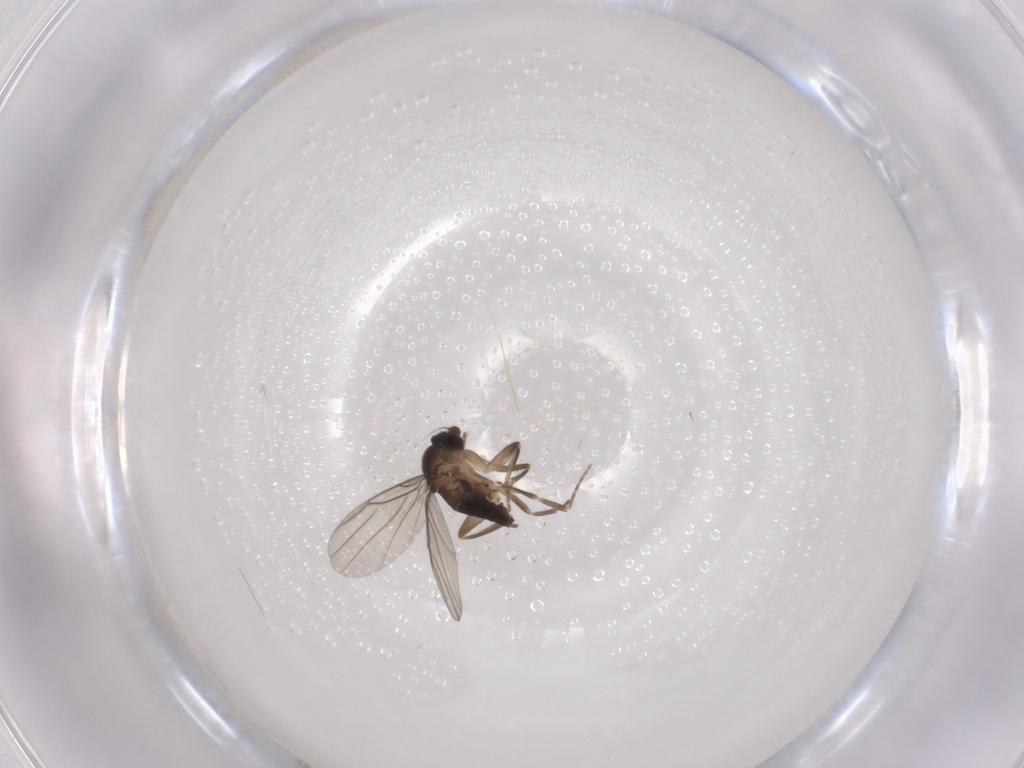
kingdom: Animalia
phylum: Arthropoda
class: Insecta
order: Diptera
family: Phoridae
